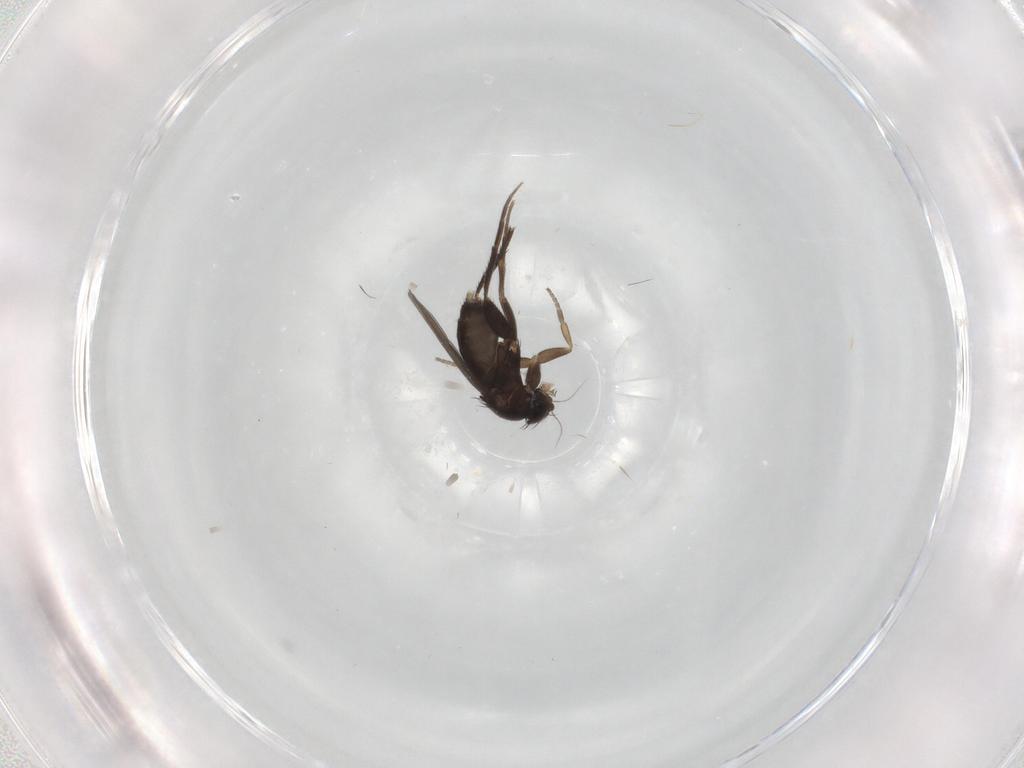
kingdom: Animalia
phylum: Arthropoda
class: Insecta
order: Diptera
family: Phoridae
